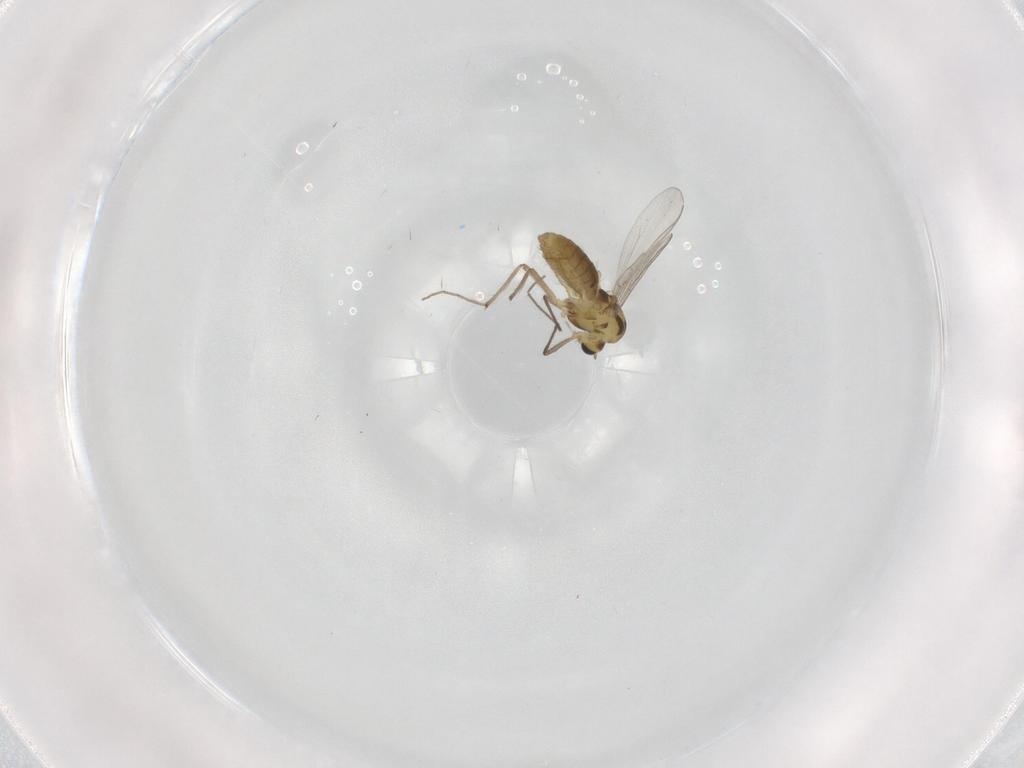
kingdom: Animalia
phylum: Arthropoda
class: Insecta
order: Diptera
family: Chironomidae
